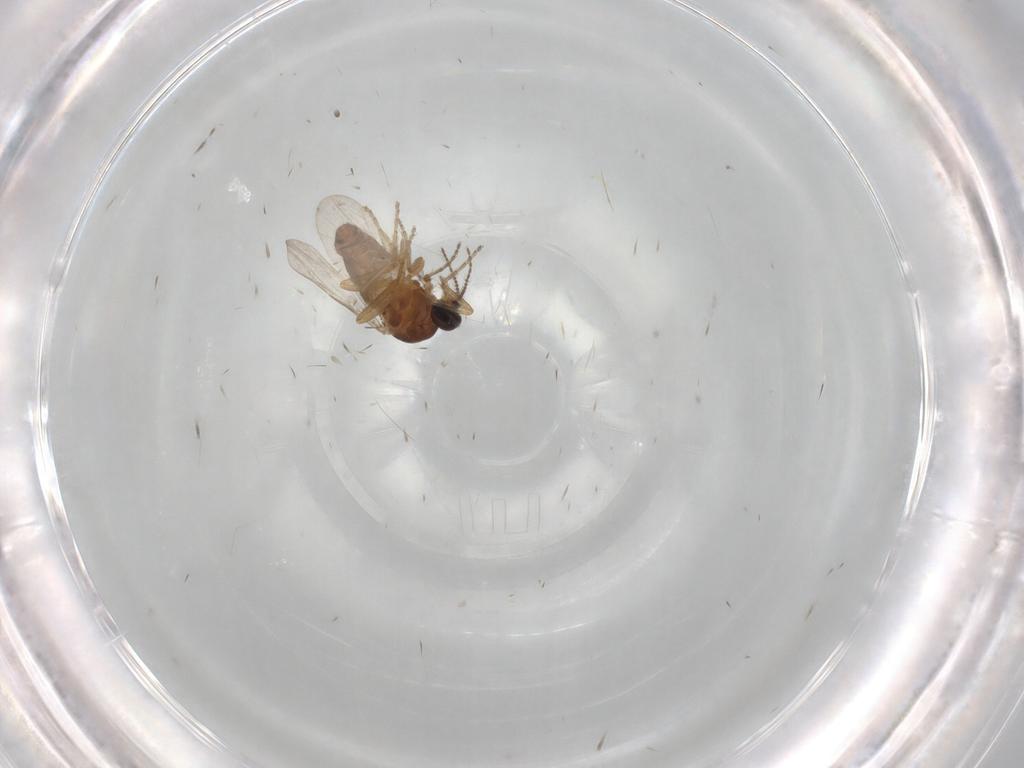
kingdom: Animalia
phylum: Arthropoda
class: Insecta
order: Diptera
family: Ceratopogonidae
